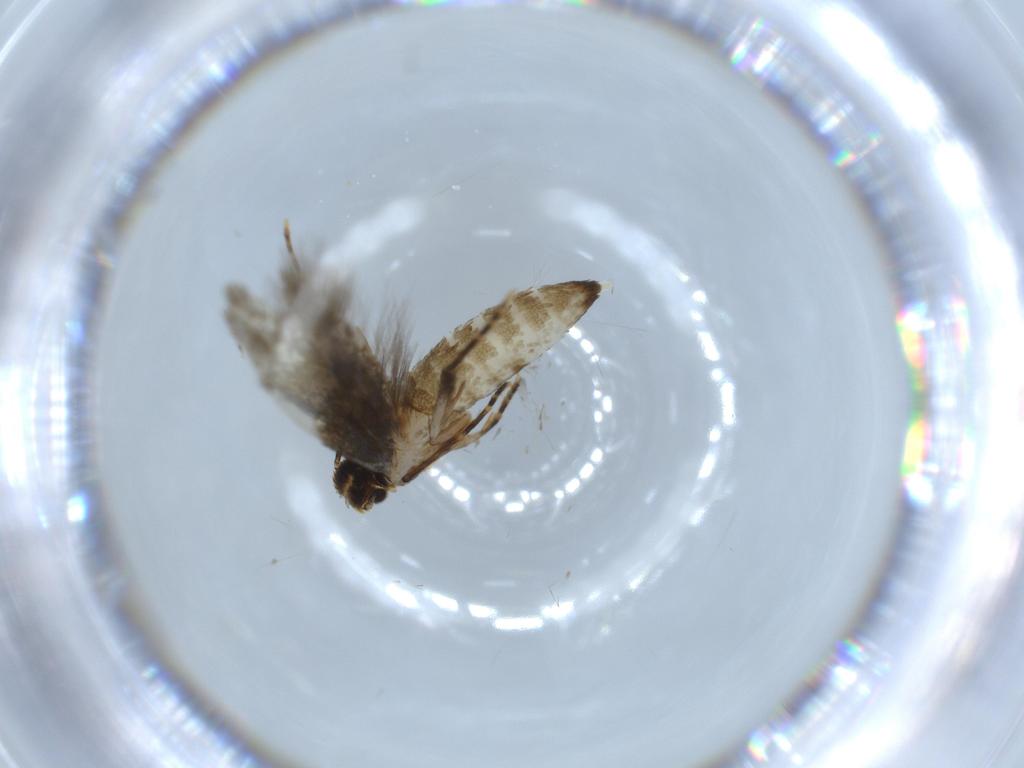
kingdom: Animalia
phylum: Arthropoda
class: Insecta
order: Lepidoptera
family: Tineidae
